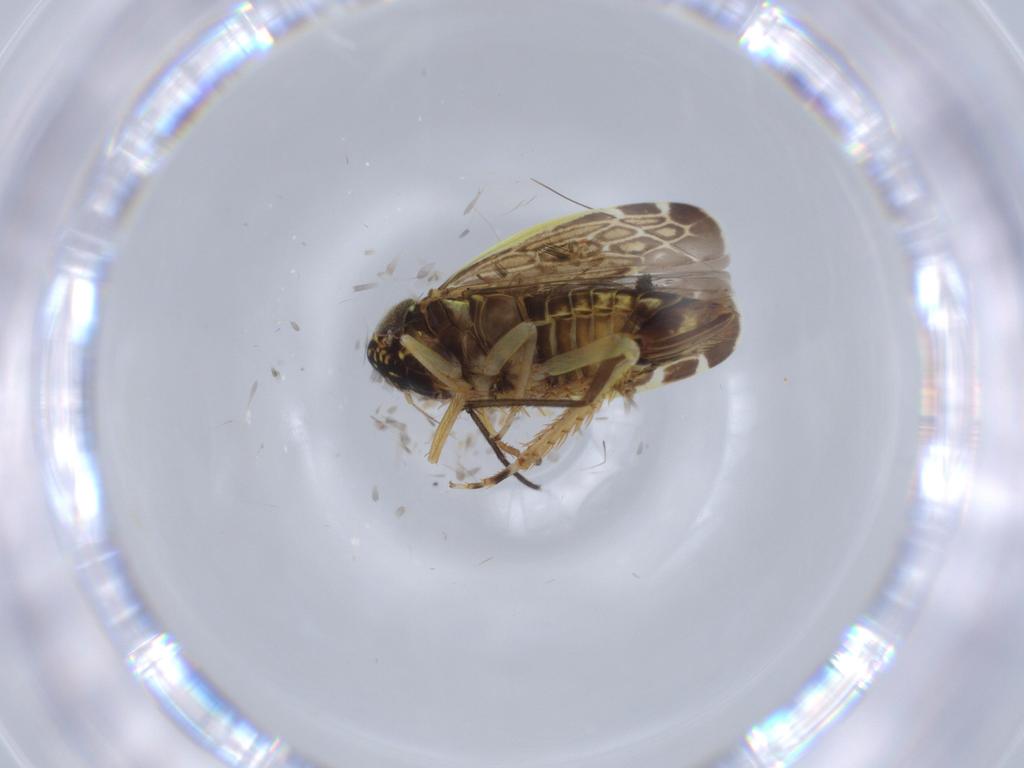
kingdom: Animalia
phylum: Arthropoda
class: Insecta
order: Hemiptera
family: Cicadellidae
